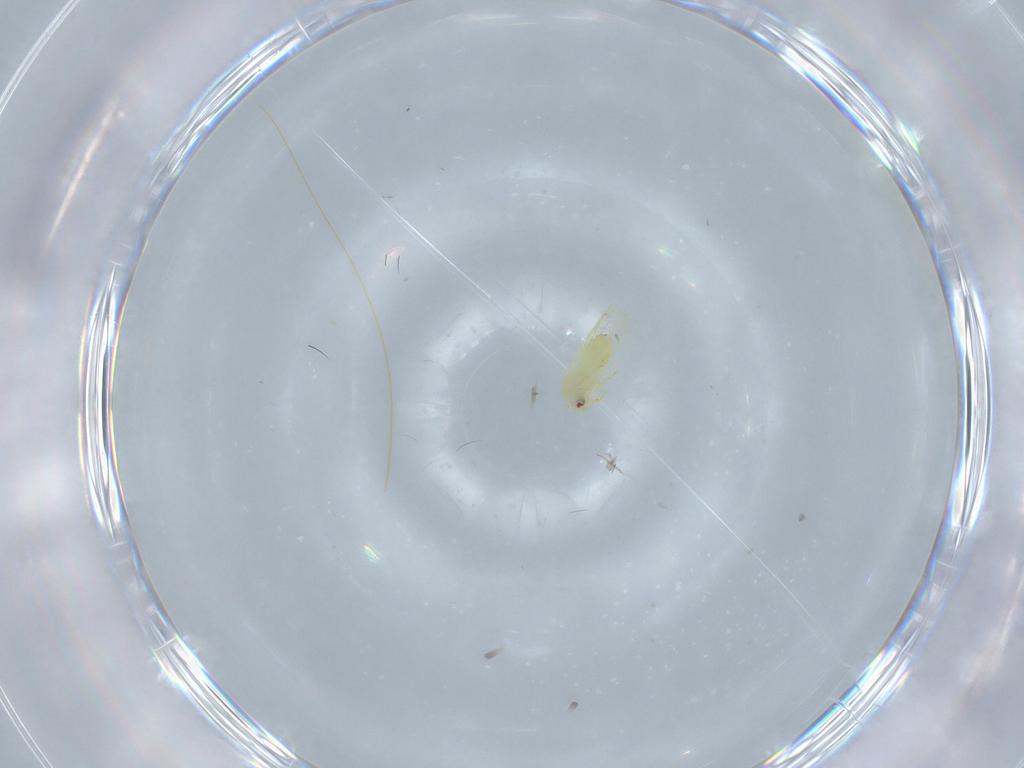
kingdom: Animalia
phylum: Arthropoda
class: Insecta
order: Hemiptera
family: Aleyrodidae
